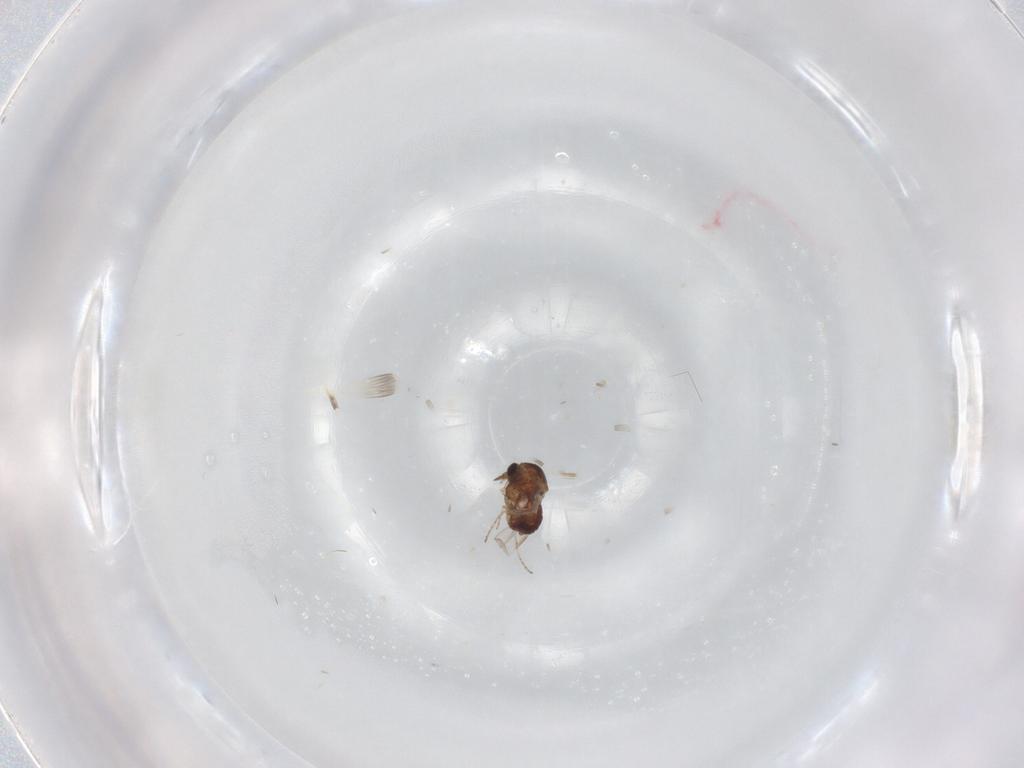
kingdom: Animalia
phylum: Arthropoda
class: Insecta
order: Diptera
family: Ceratopogonidae
